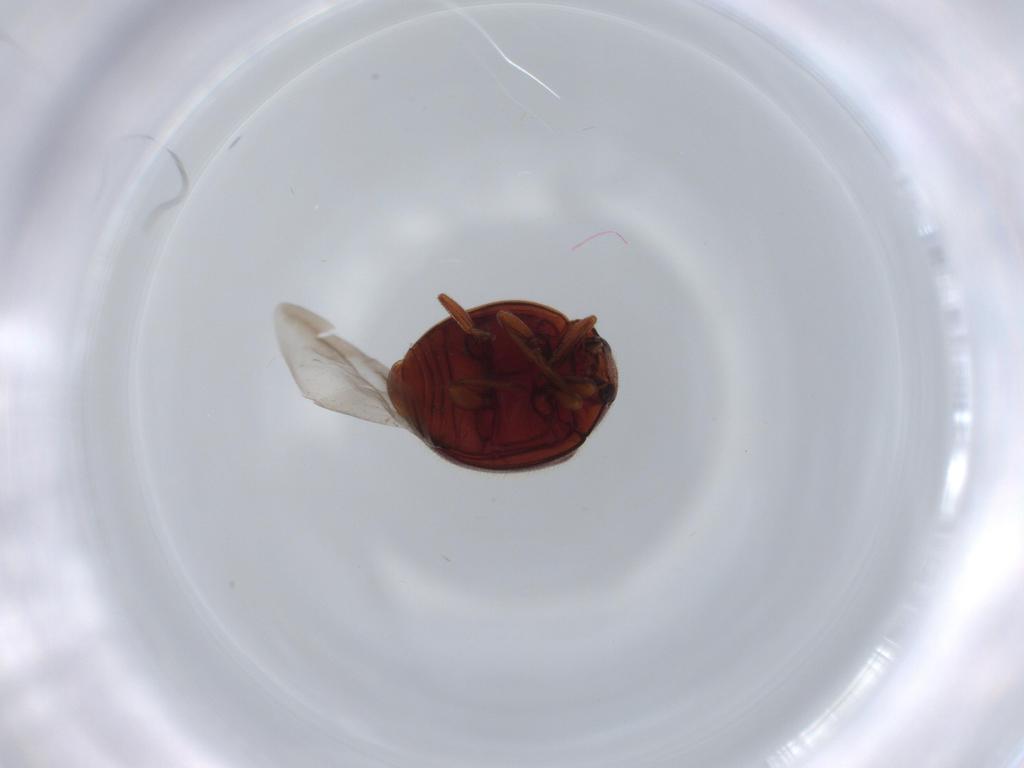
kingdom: Animalia
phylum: Arthropoda
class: Insecta
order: Coleoptera
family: Coccinellidae
